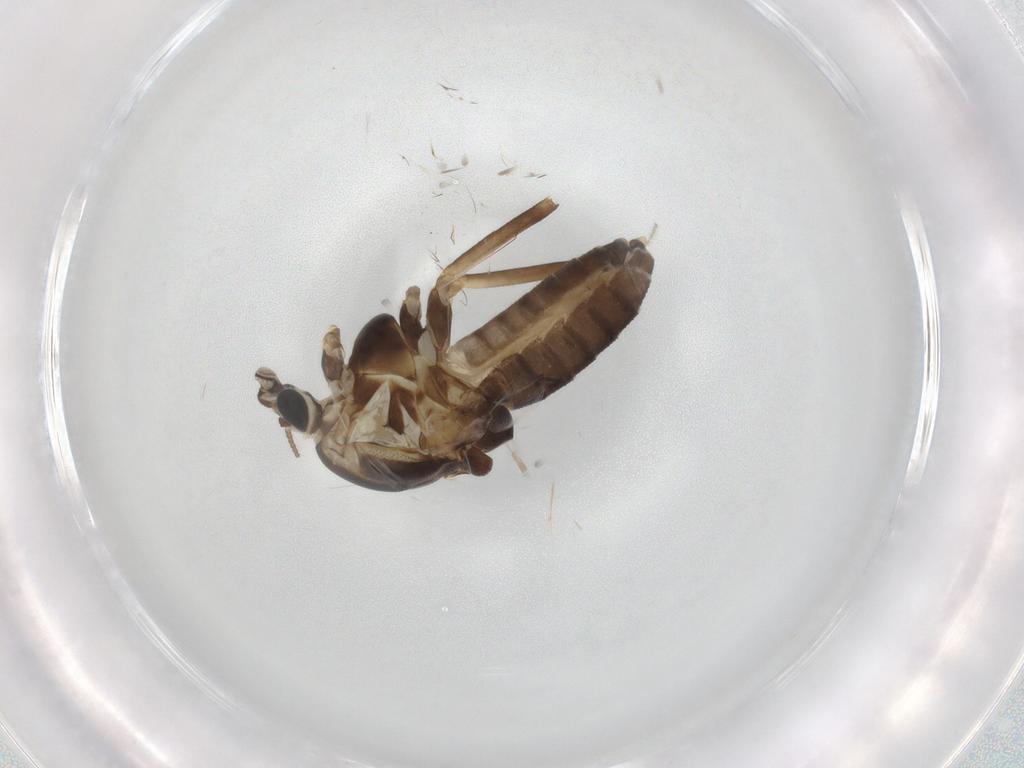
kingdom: Animalia
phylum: Arthropoda
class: Insecta
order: Diptera
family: Chironomidae
